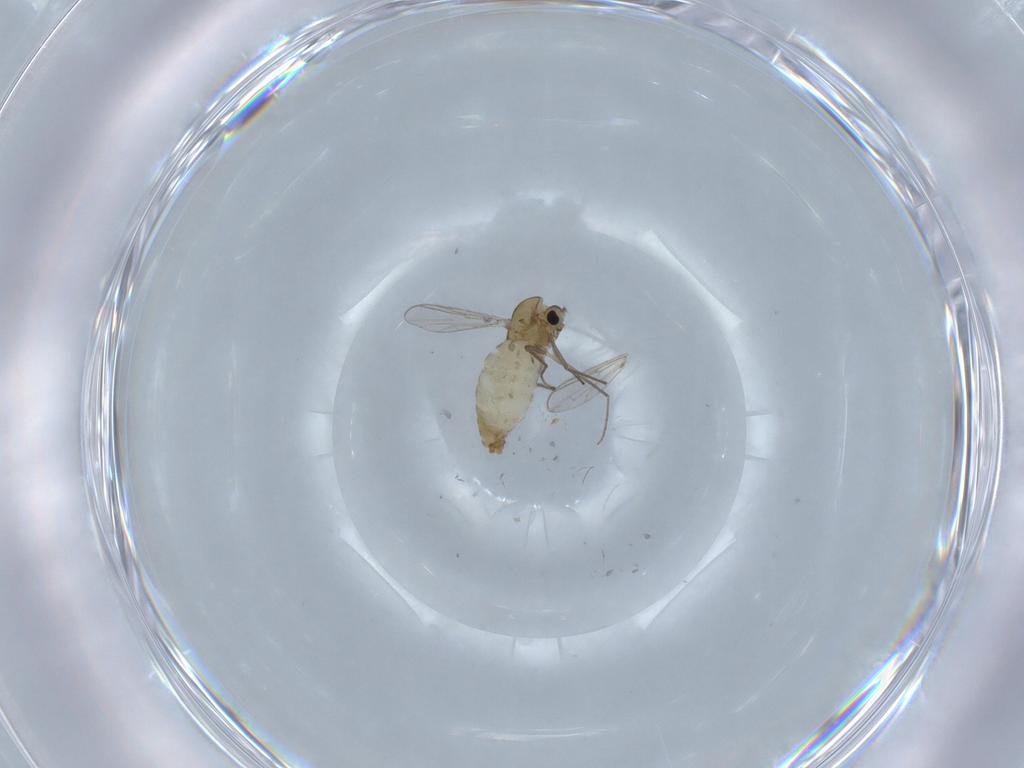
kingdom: Animalia
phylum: Arthropoda
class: Insecta
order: Diptera
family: Chironomidae
